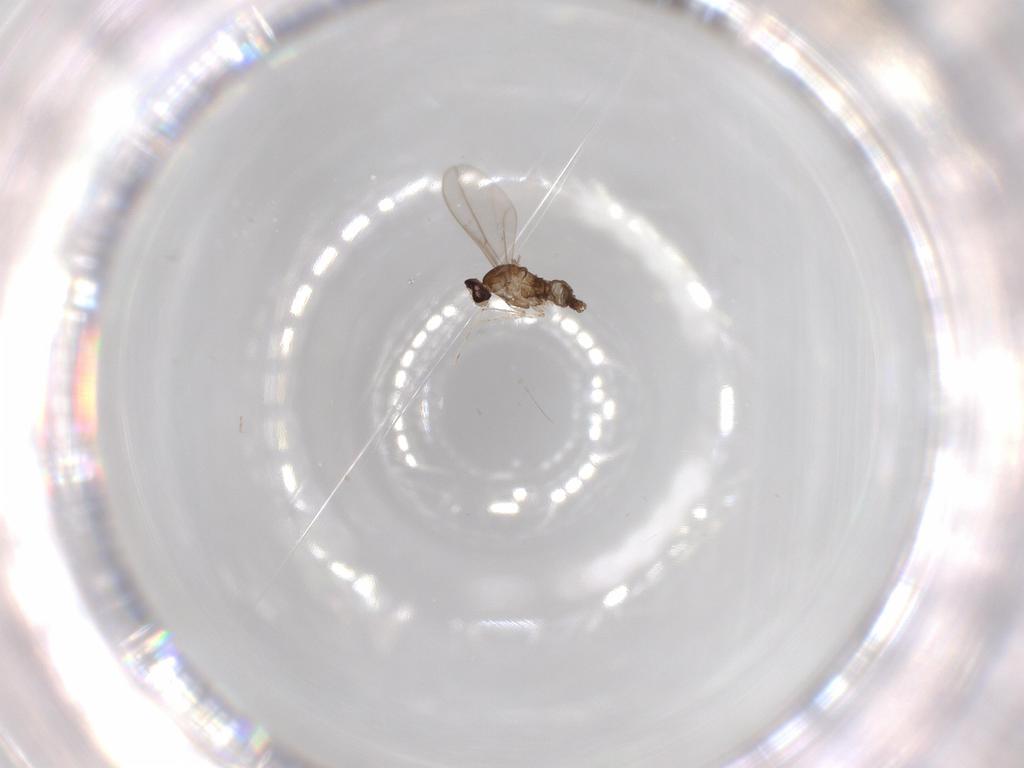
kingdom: Animalia
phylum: Arthropoda
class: Insecta
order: Diptera
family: Cecidomyiidae
